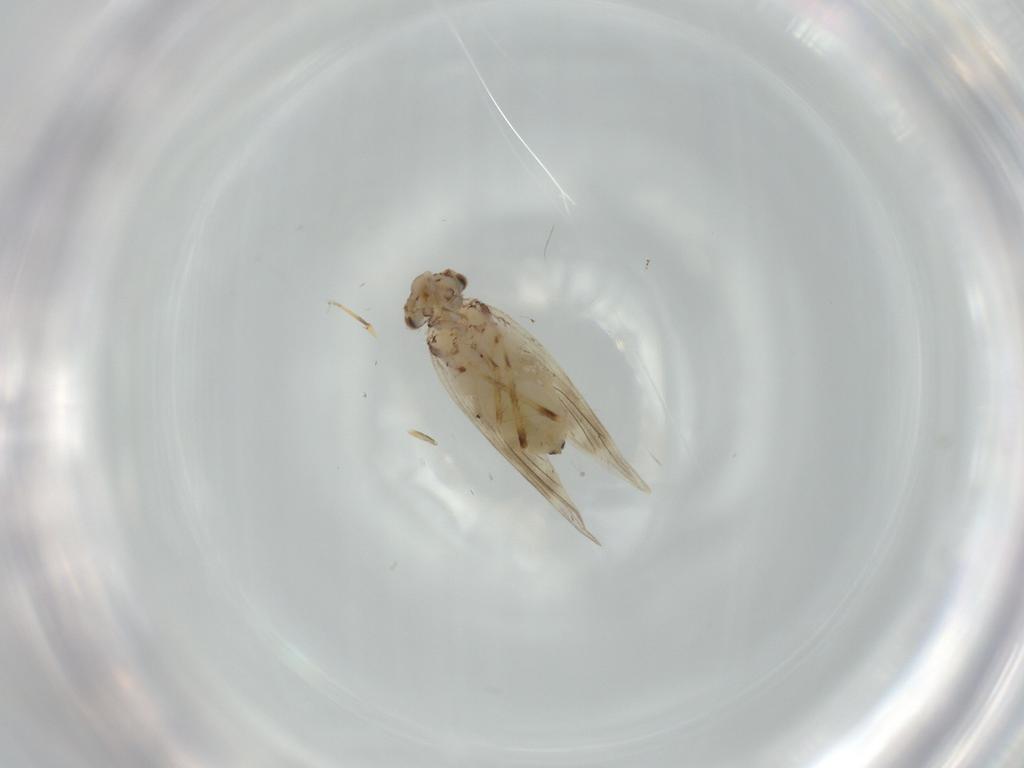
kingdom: Animalia
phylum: Arthropoda
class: Insecta
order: Psocodea
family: Lepidopsocidae
